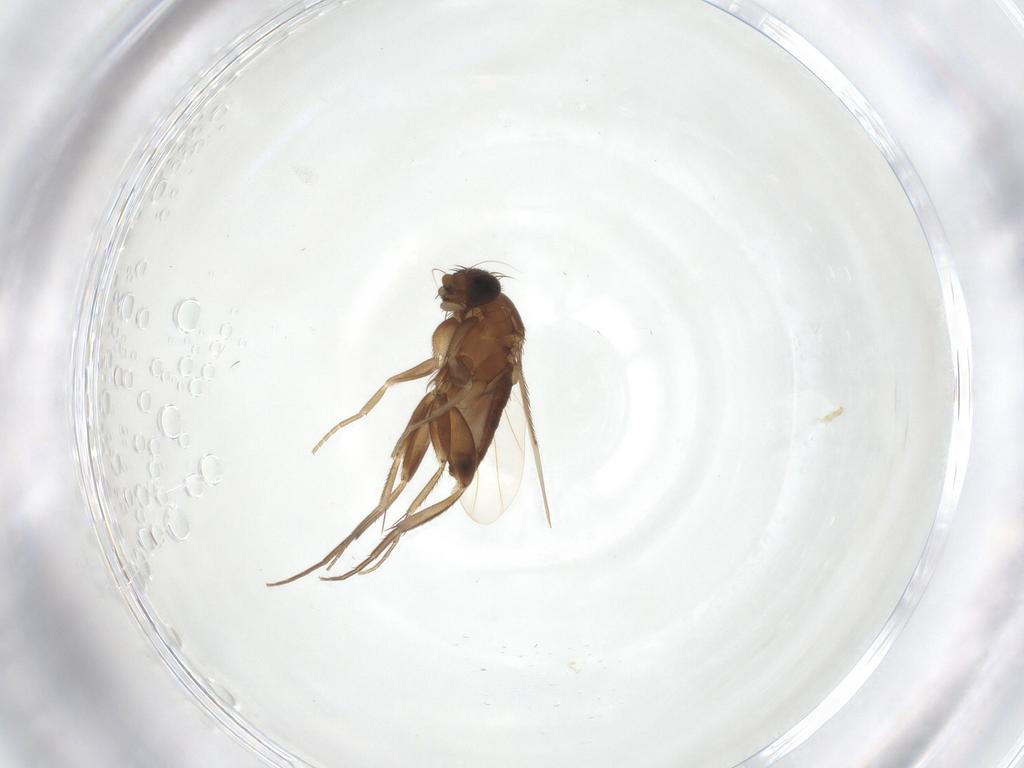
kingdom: Animalia
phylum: Arthropoda
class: Insecta
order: Diptera
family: Phoridae
